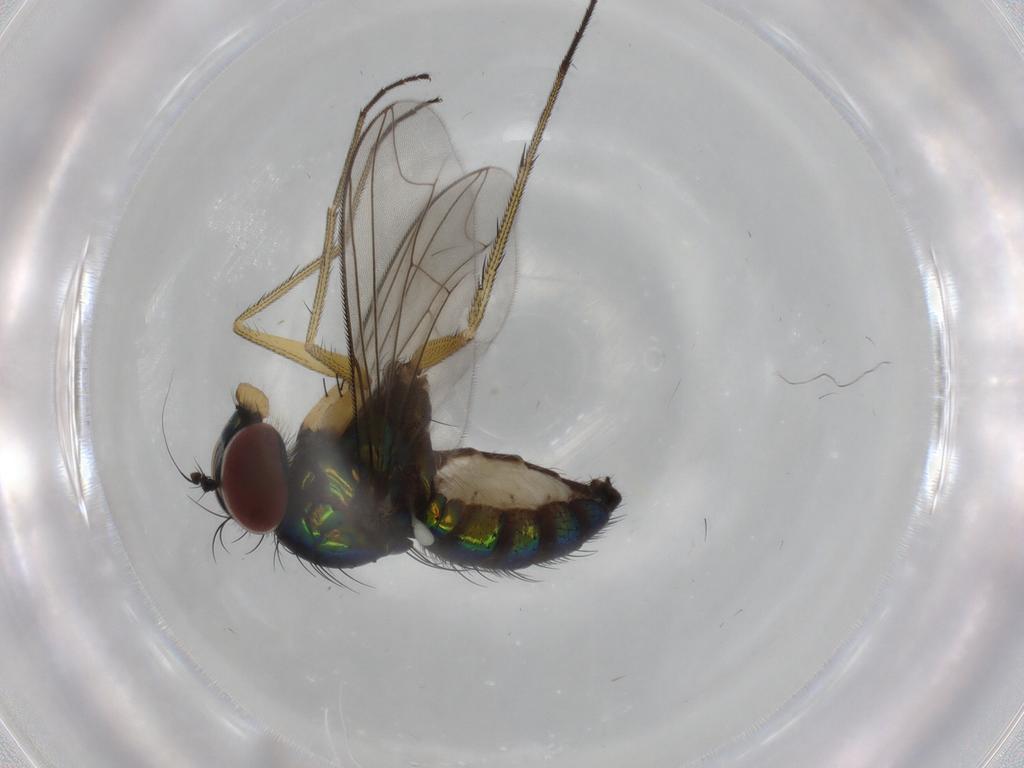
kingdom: Animalia
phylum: Arthropoda
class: Insecta
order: Diptera
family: Dolichopodidae
